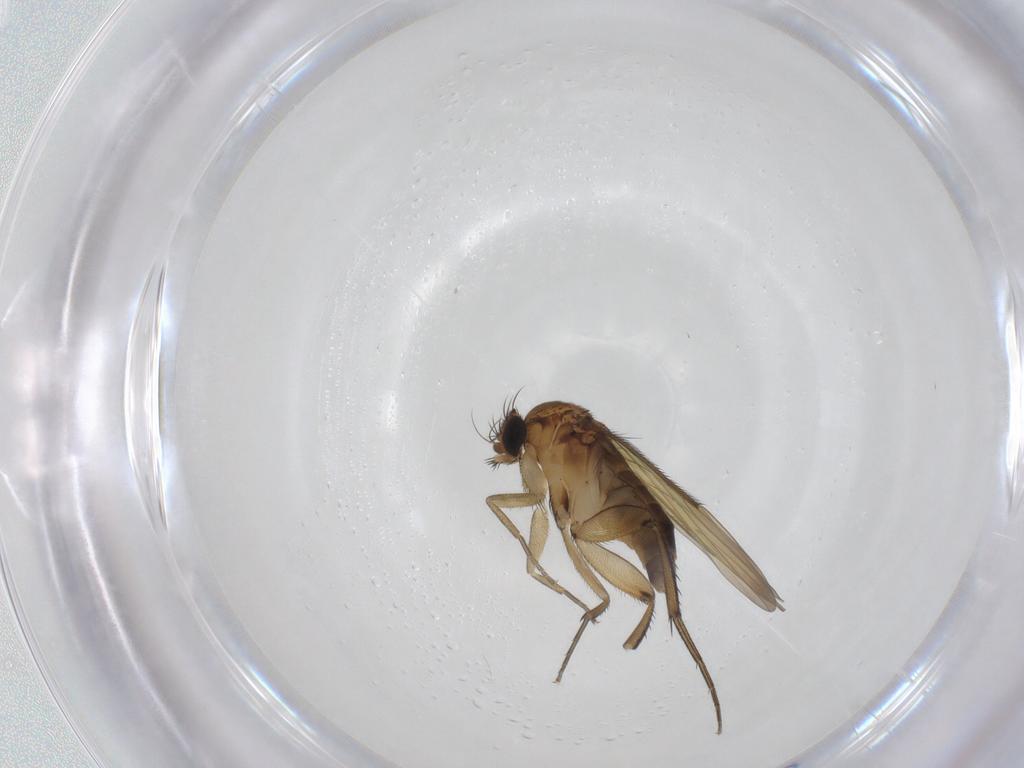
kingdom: Animalia
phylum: Arthropoda
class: Insecta
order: Diptera
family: Phoridae
